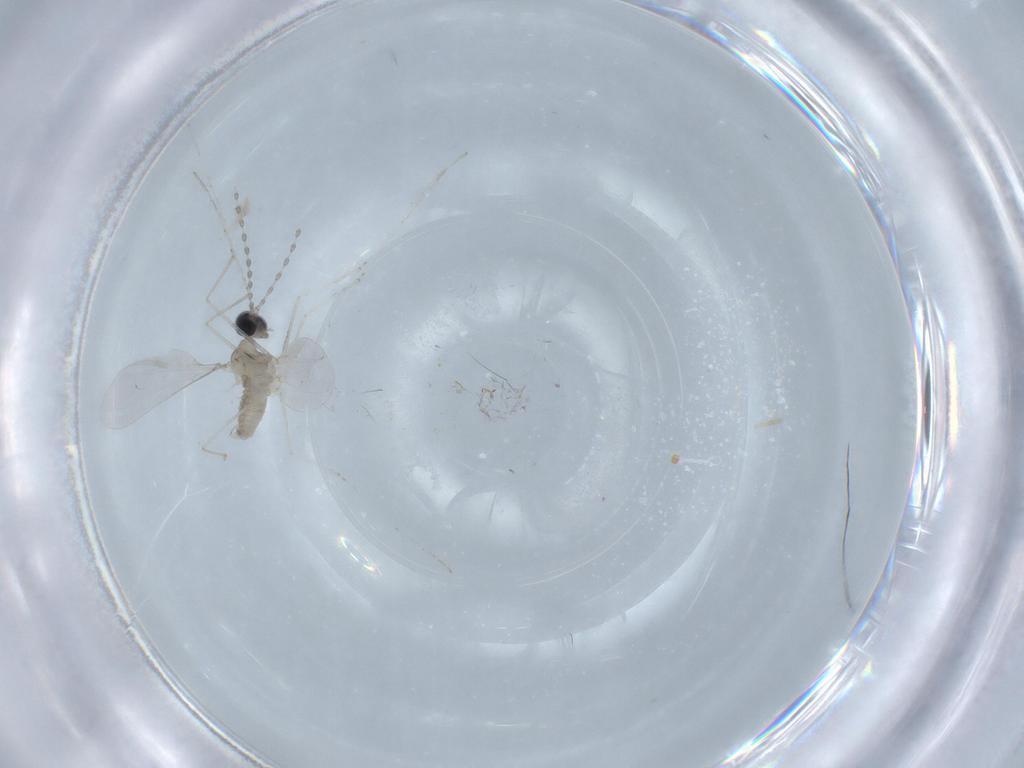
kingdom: Animalia
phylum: Arthropoda
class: Insecta
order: Diptera
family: Cecidomyiidae
